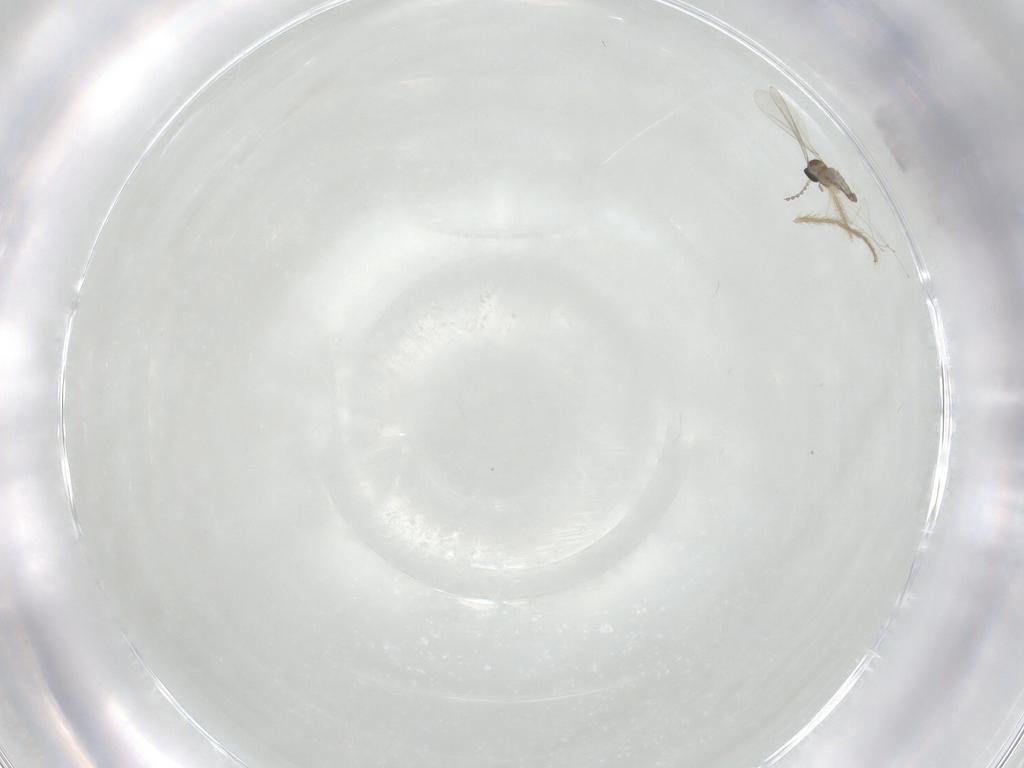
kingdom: Animalia
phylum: Arthropoda
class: Insecta
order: Diptera
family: Cecidomyiidae
